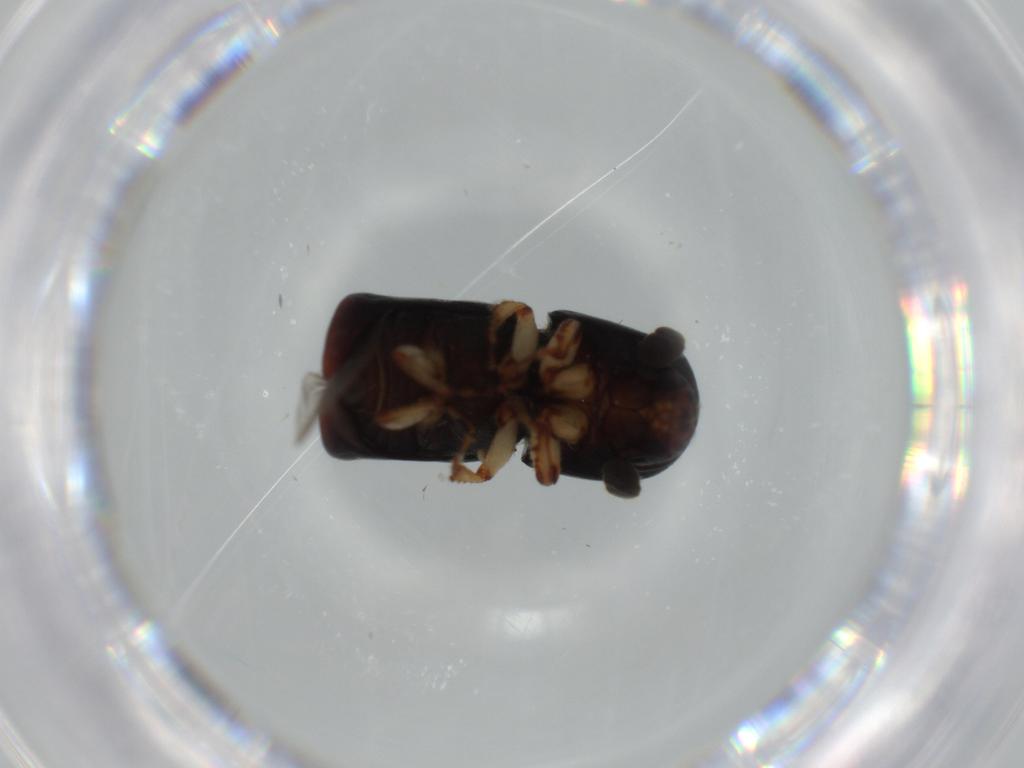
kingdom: Animalia
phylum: Arthropoda
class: Insecta
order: Coleoptera
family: Curculionidae
